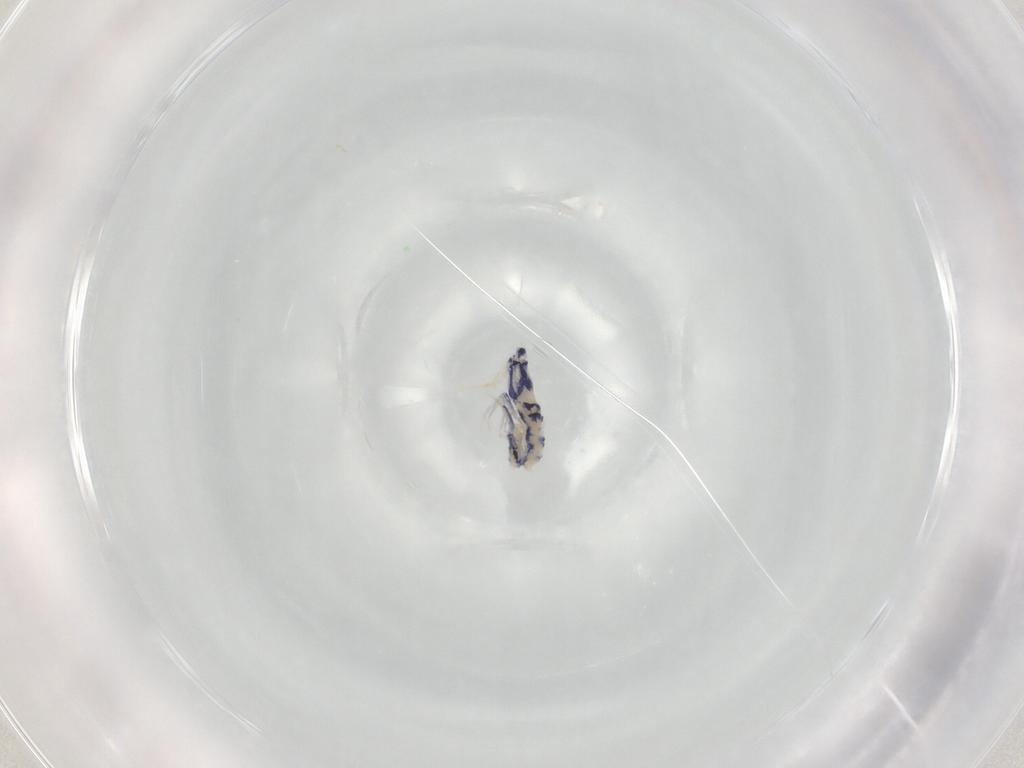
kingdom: Animalia
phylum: Arthropoda
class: Collembola
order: Entomobryomorpha
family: Entomobryidae
